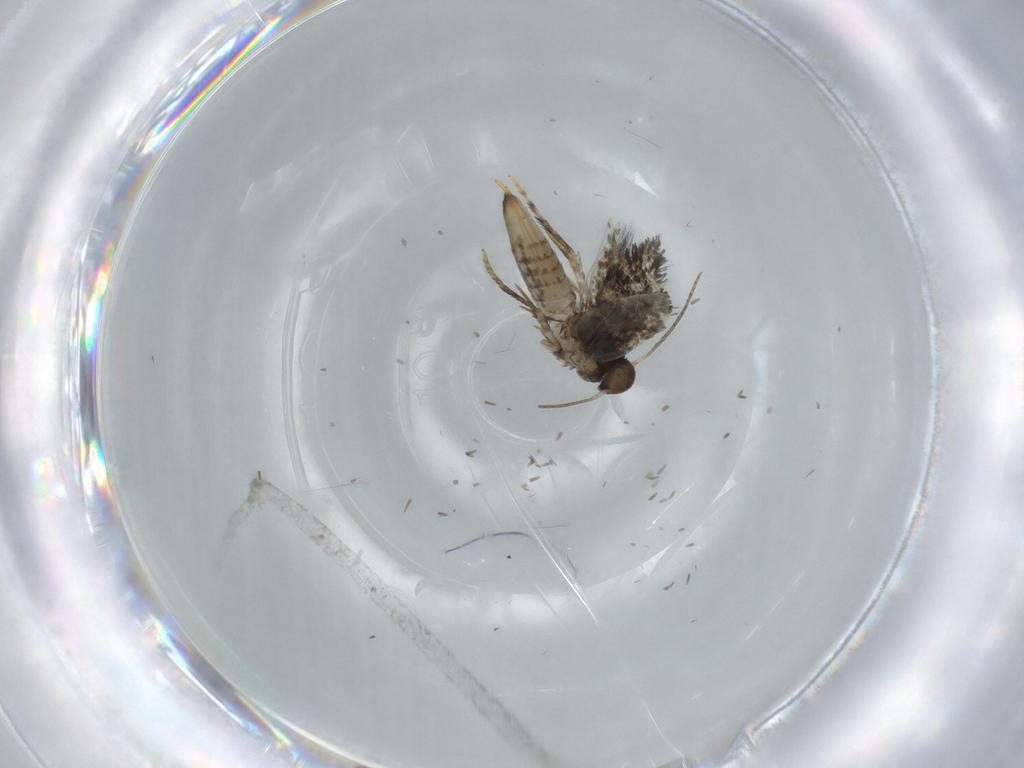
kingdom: Animalia
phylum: Arthropoda
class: Insecta
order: Lepidoptera
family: Heliozelidae
